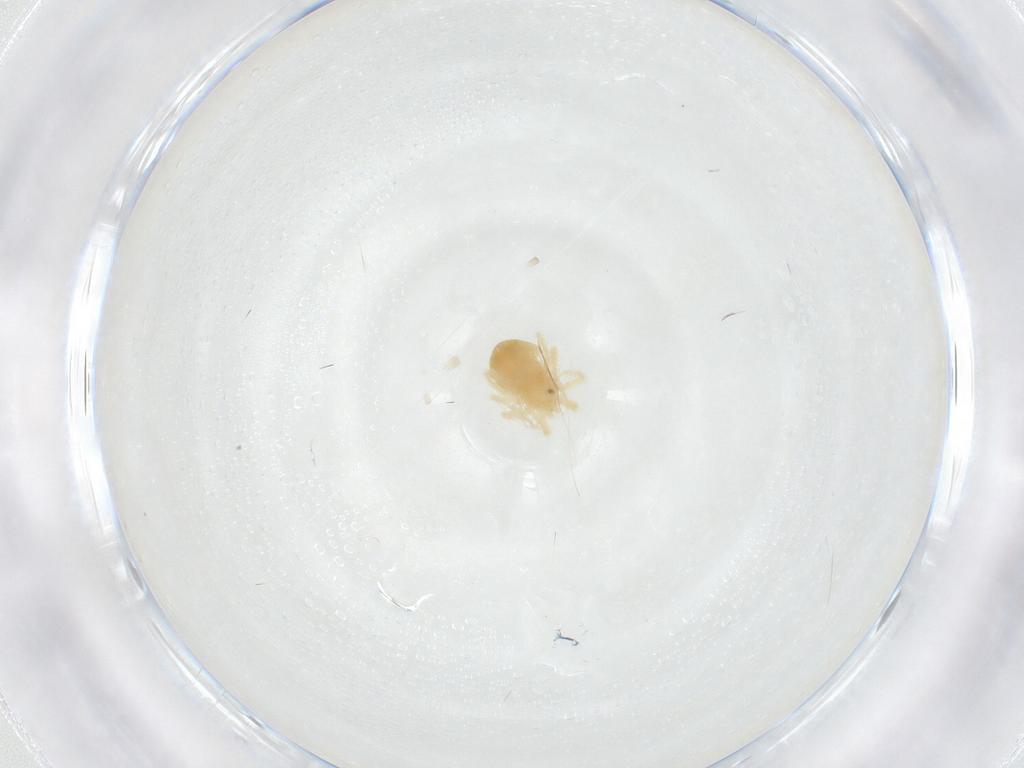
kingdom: Animalia
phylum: Arthropoda
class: Arachnida
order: Trombidiformes
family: Anystidae
